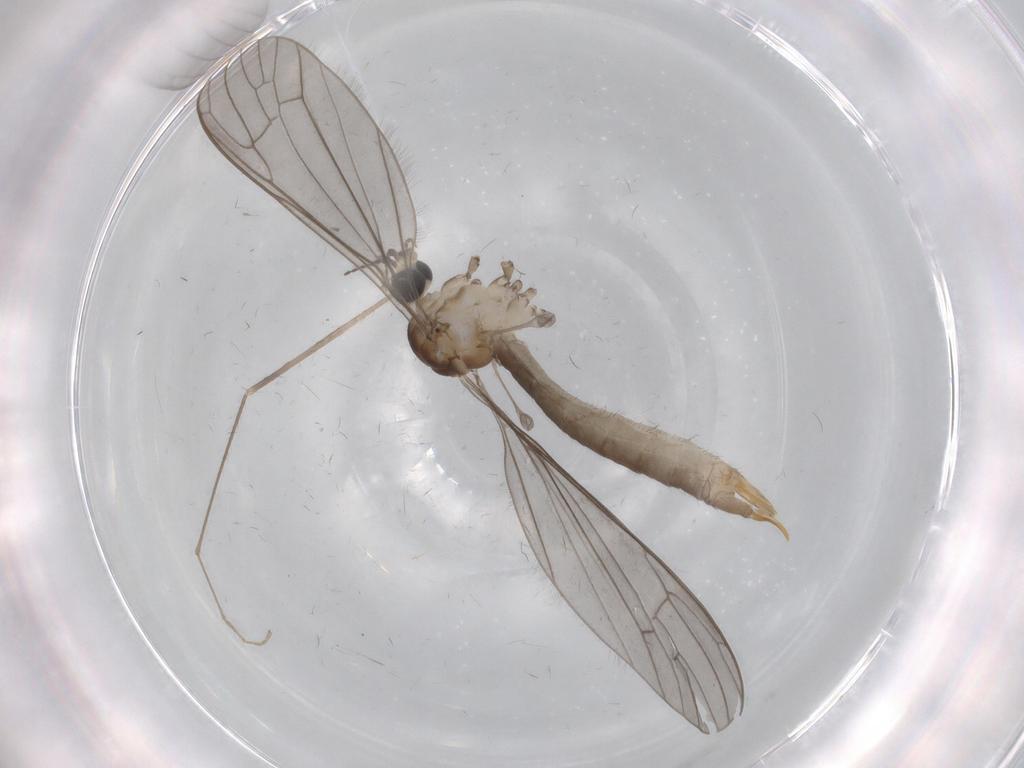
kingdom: Animalia
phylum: Arthropoda
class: Insecta
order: Diptera
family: Limoniidae
